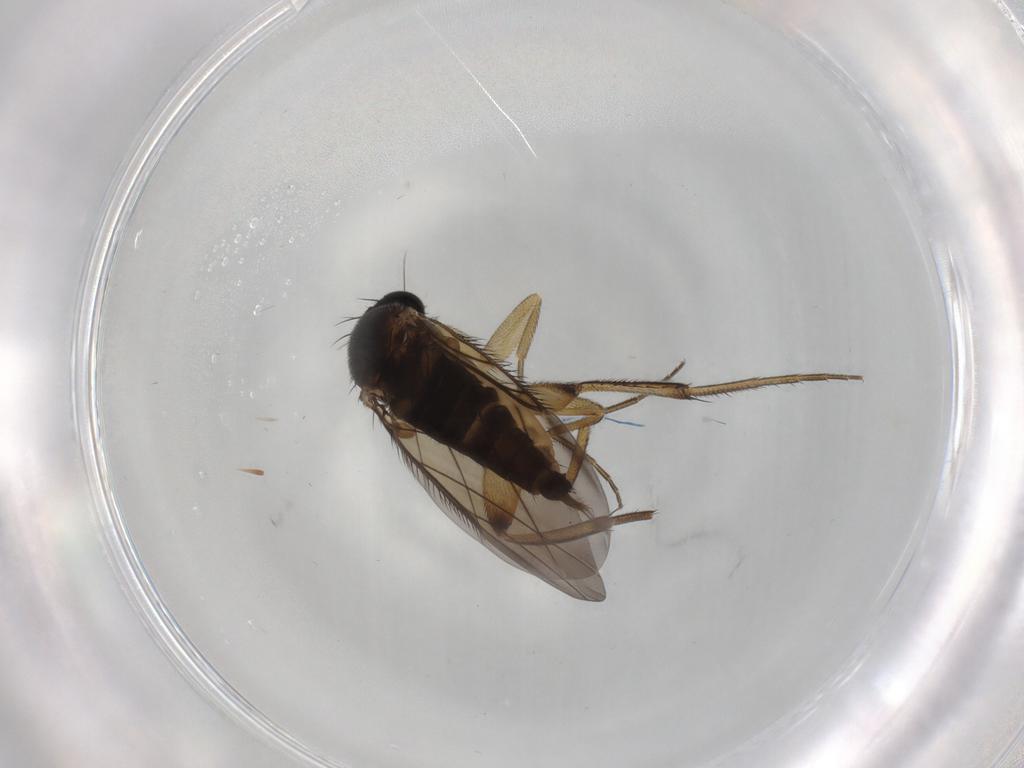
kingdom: Animalia
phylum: Arthropoda
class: Insecta
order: Diptera
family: Phoridae
